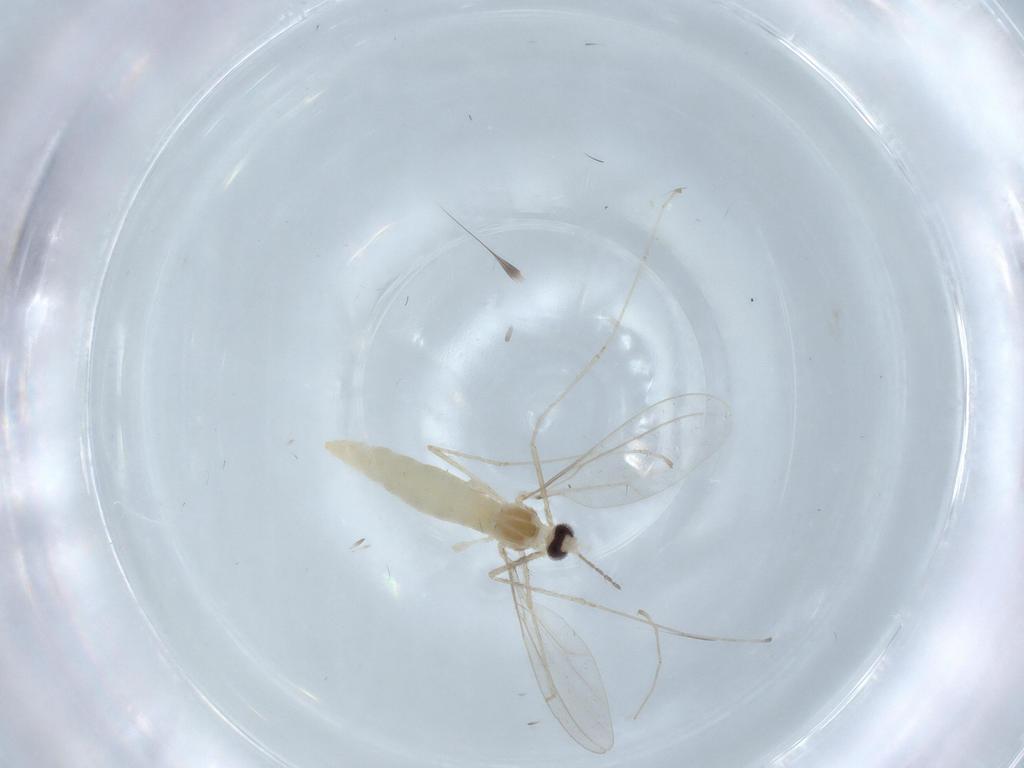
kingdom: Animalia
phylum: Arthropoda
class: Insecta
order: Diptera
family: Cecidomyiidae
